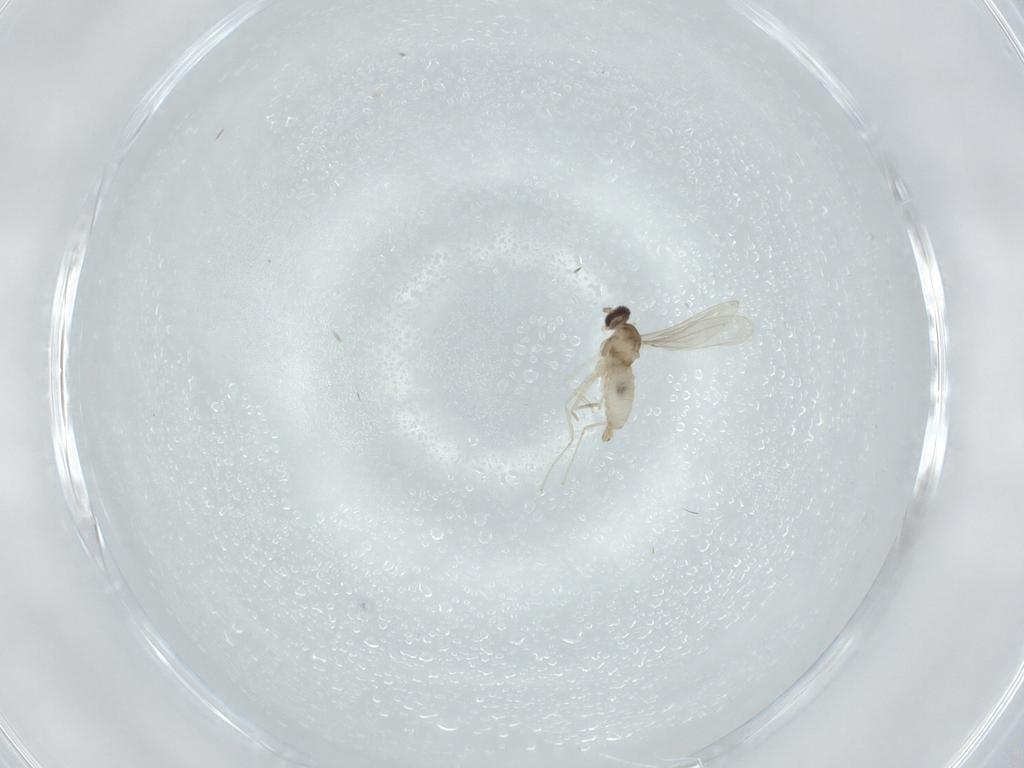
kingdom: Animalia
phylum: Arthropoda
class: Insecta
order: Diptera
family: Cecidomyiidae
